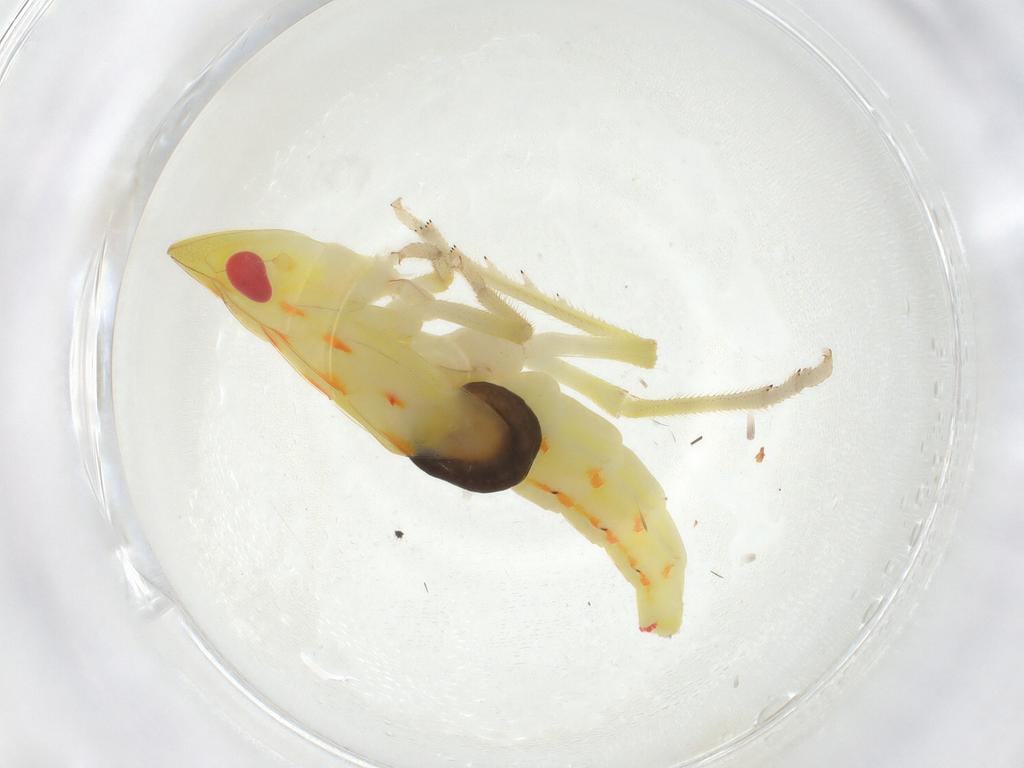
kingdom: Animalia
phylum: Arthropoda
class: Insecta
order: Hemiptera
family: Tropiduchidae
